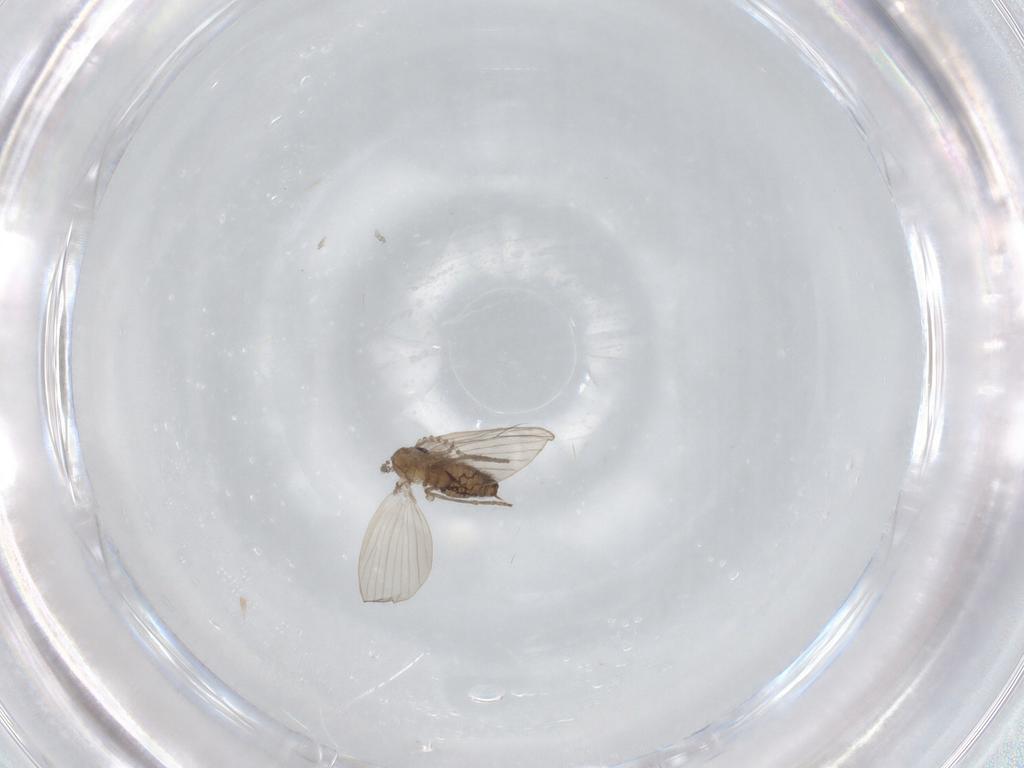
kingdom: Animalia
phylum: Arthropoda
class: Insecta
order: Diptera
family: Psychodidae
